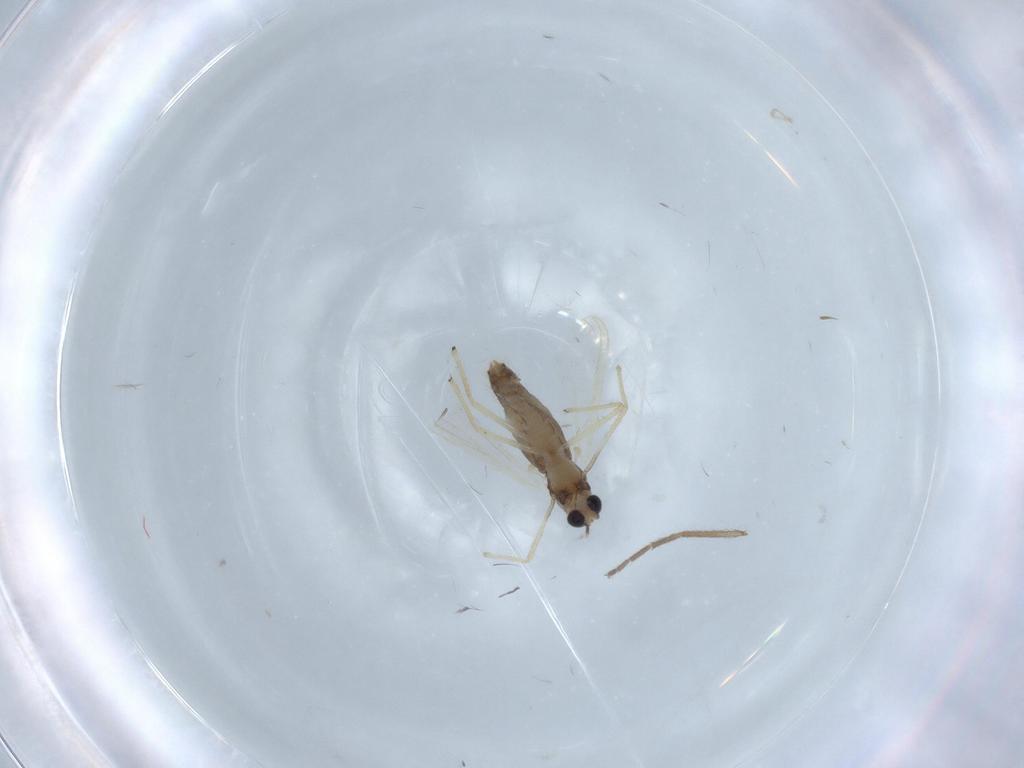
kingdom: Animalia
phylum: Arthropoda
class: Insecta
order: Diptera
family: Chironomidae
